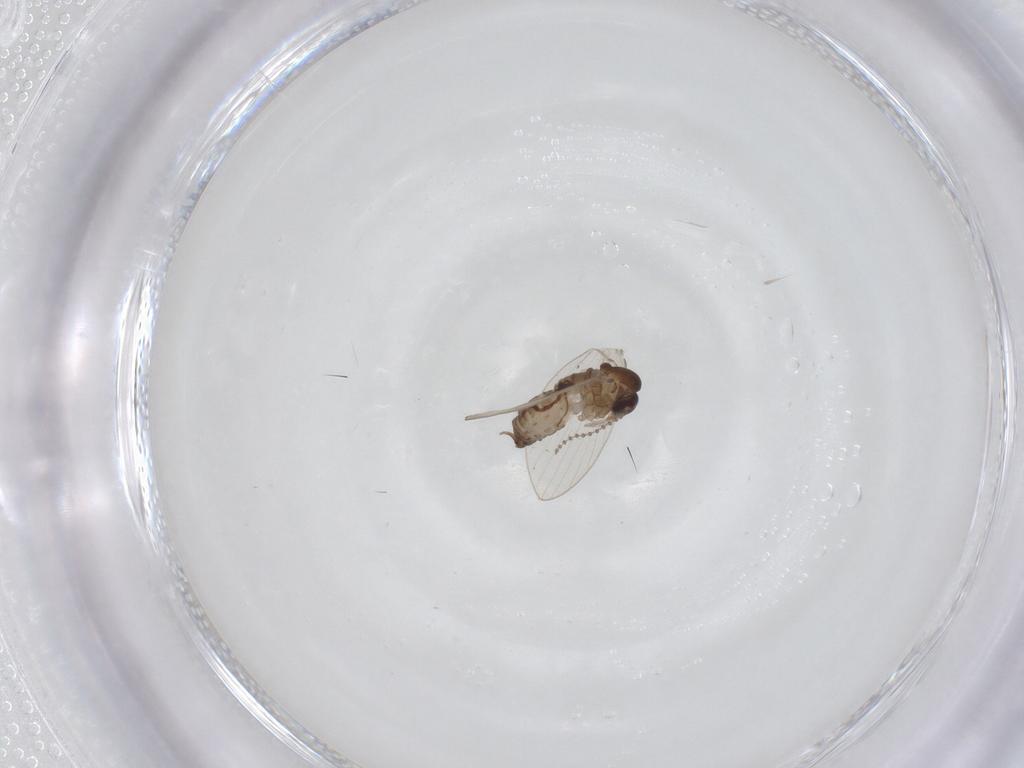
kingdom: Animalia
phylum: Arthropoda
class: Insecta
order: Diptera
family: Psychodidae
